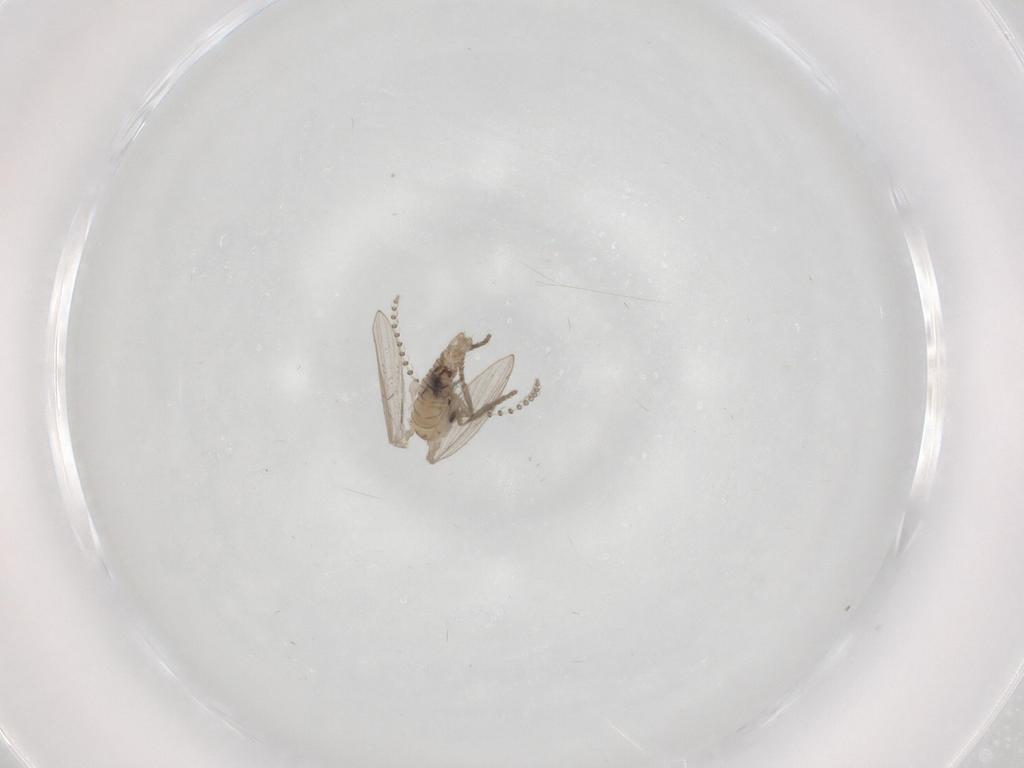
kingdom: Animalia
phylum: Arthropoda
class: Insecta
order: Diptera
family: Psychodidae
